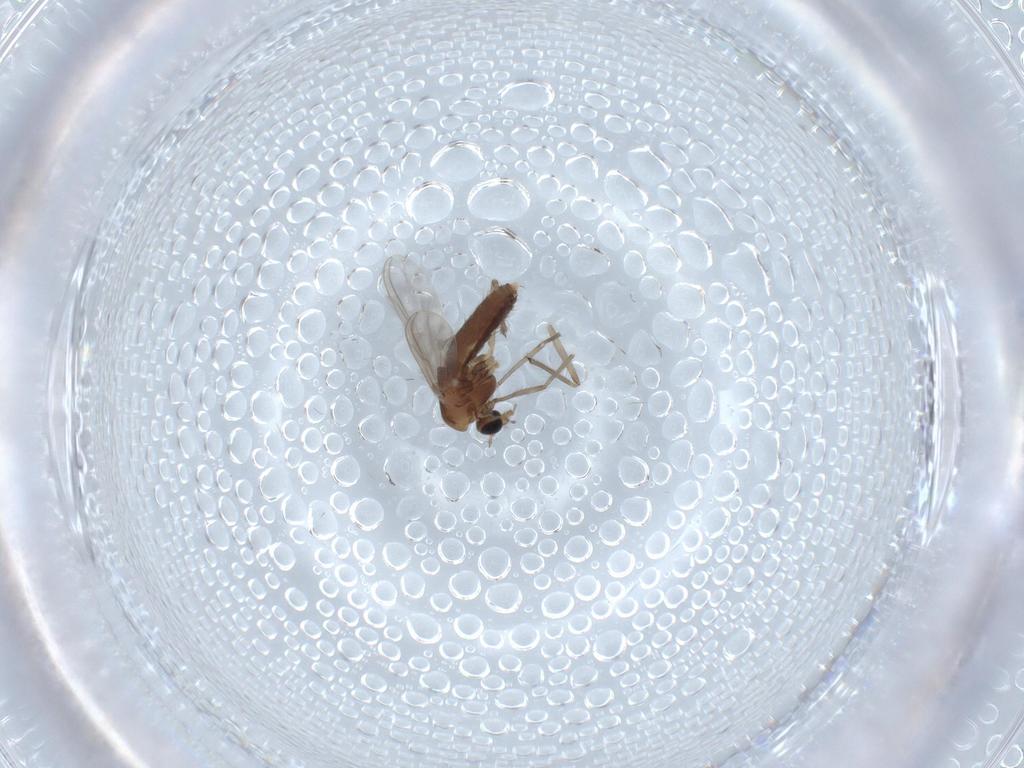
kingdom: Animalia
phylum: Arthropoda
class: Insecta
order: Diptera
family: Chironomidae
